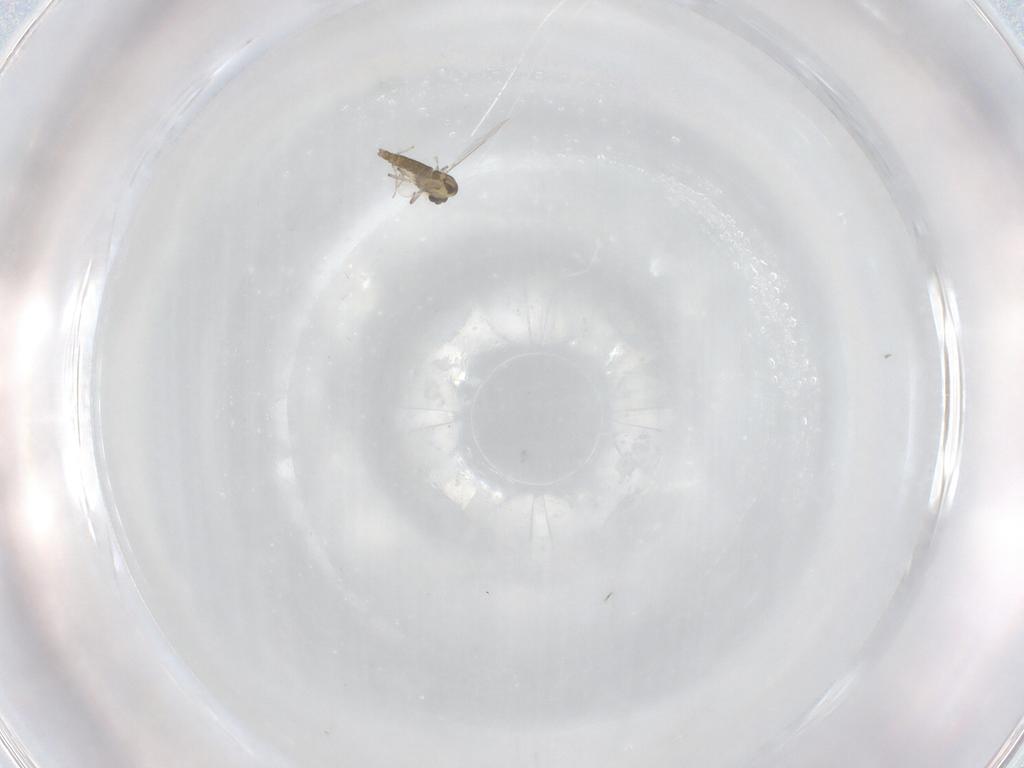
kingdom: Animalia
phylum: Arthropoda
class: Insecta
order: Diptera
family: Chironomidae
